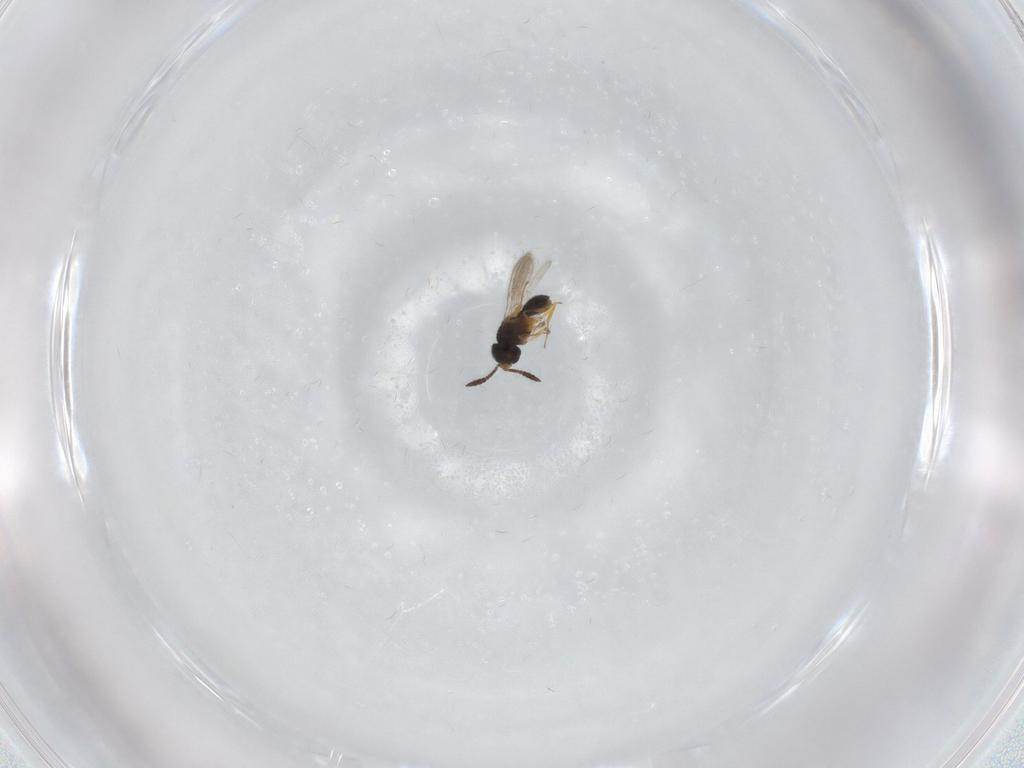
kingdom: Animalia
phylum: Arthropoda
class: Insecta
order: Hymenoptera
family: Scelionidae
